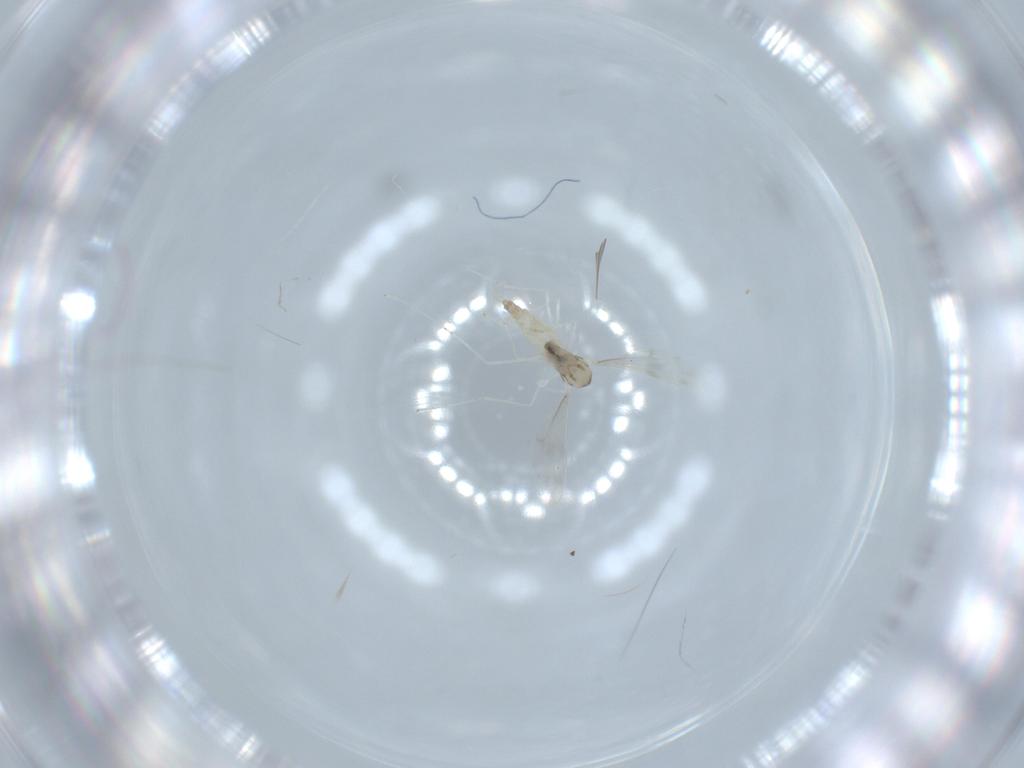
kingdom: Animalia
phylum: Arthropoda
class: Insecta
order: Diptera
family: Cecidomyiidae
